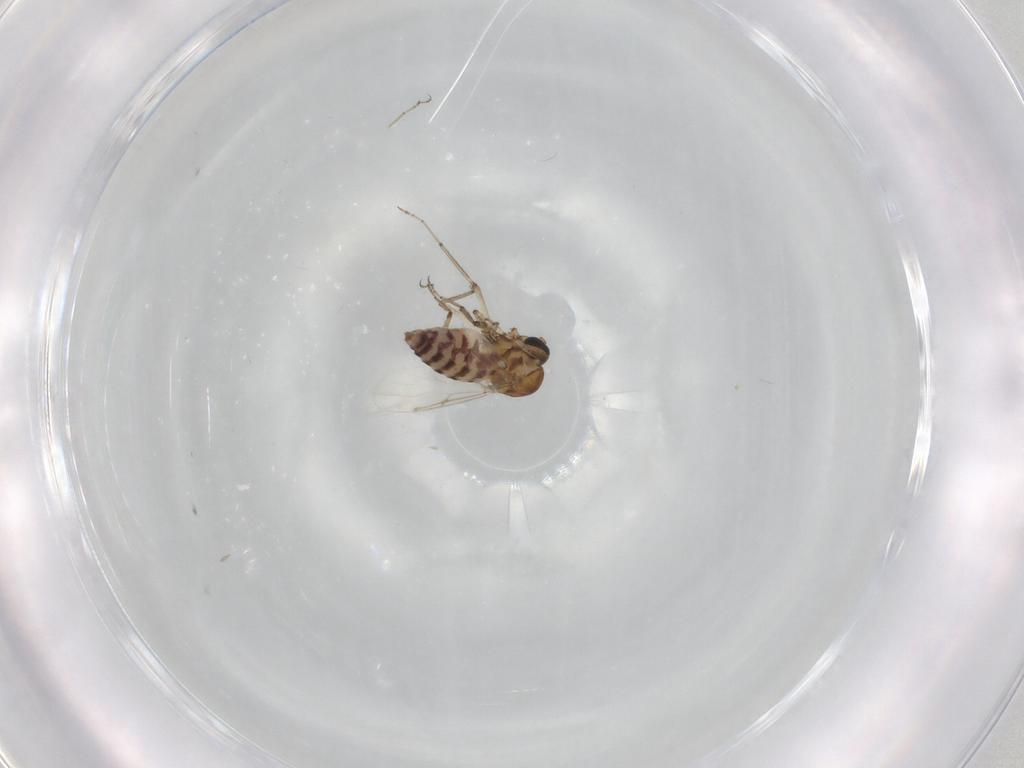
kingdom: Animalia
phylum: Arthropoda
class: Insecta
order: Diptera
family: Ceratopogonidae
